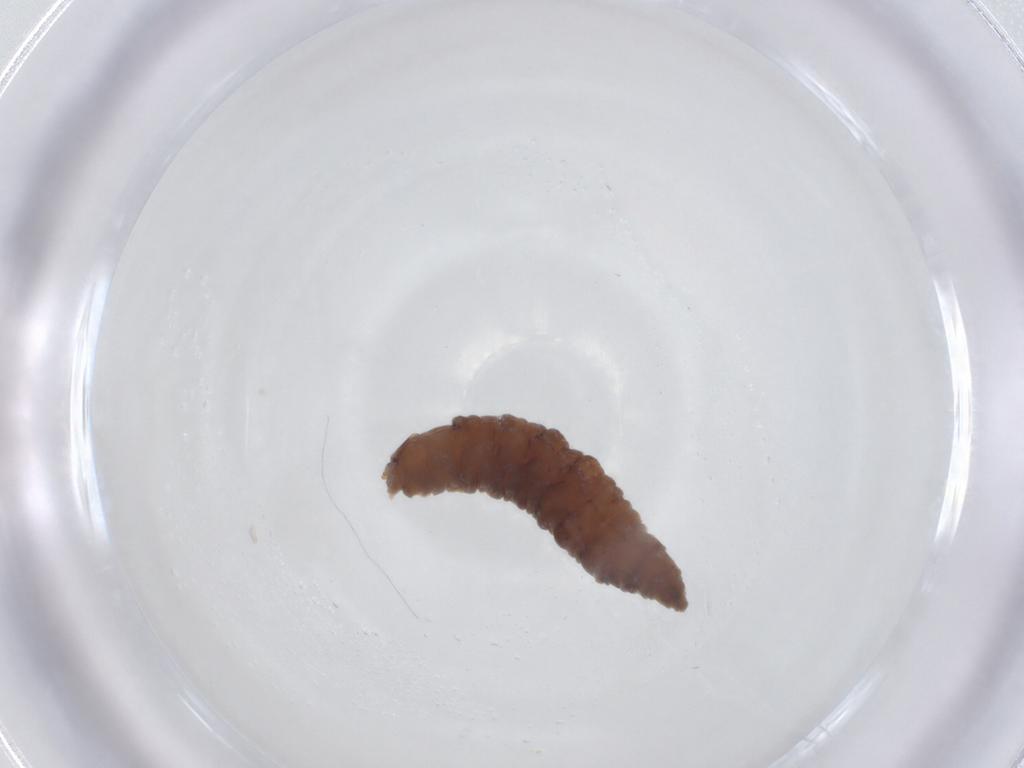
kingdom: Animalia
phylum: Arthropoda
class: Insecta
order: Diptera
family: Phoridae
